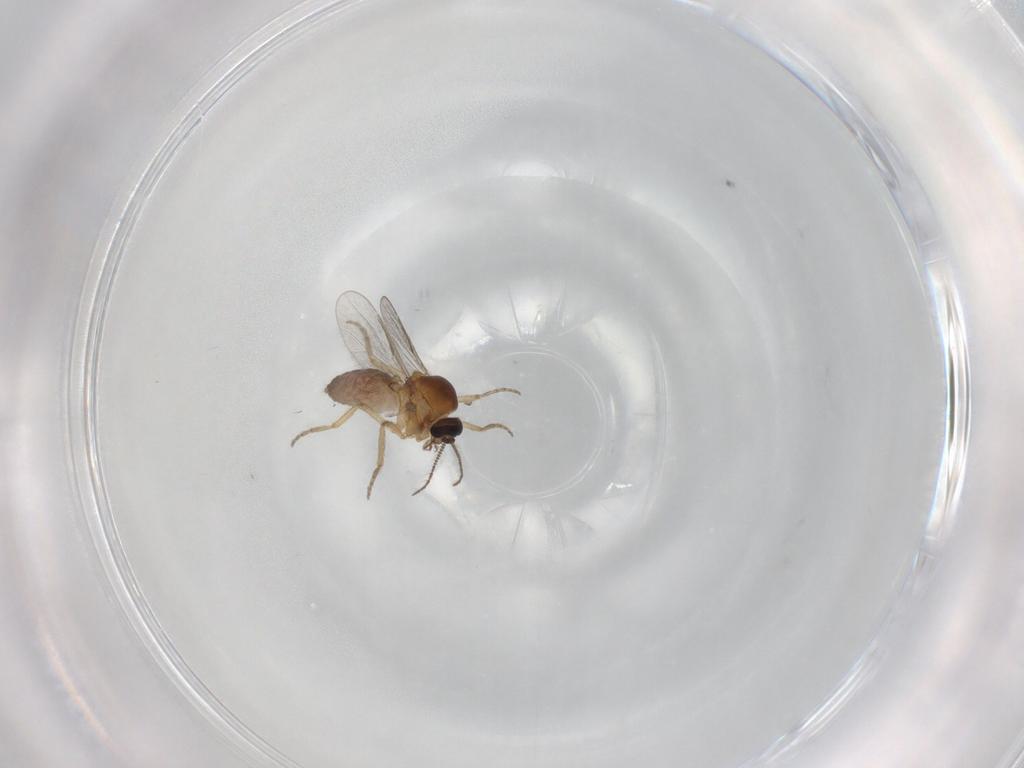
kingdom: Animalia
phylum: Arthropoda
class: Insecta
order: Diptera
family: Ceratopogonidae
